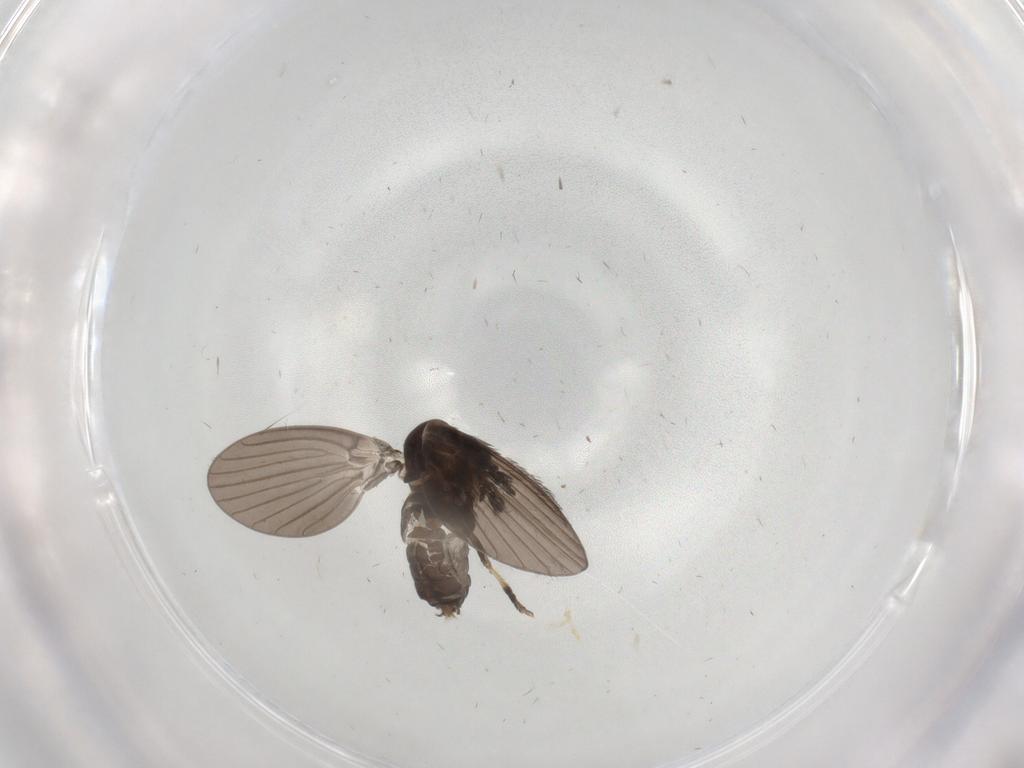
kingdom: Animalia
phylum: Arthropoda
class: Insecta
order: Diptera
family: Psychodidae
